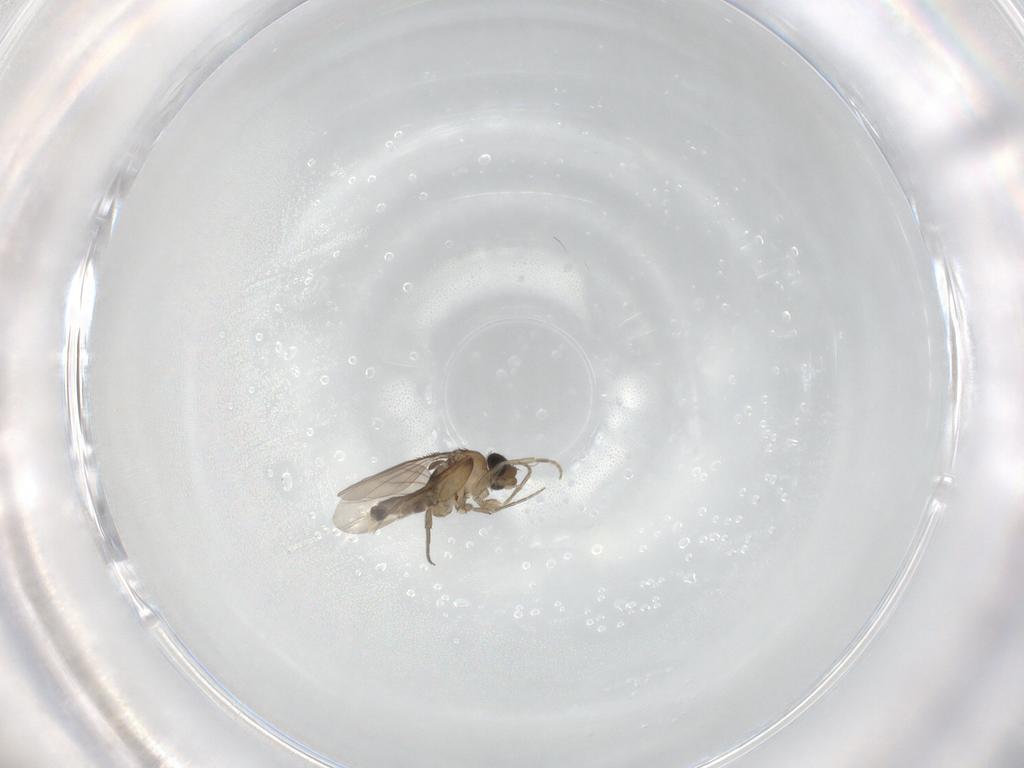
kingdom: Animalia
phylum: Arthropoda
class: Insecta
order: Diptera
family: Phoridae
